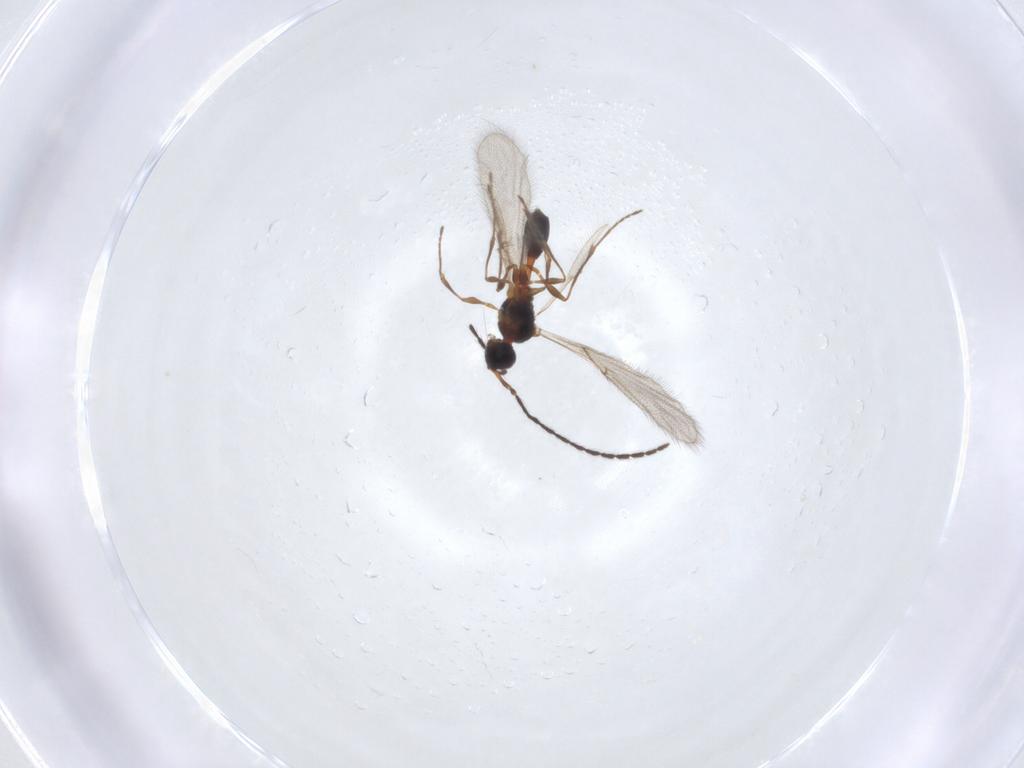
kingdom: Animalia
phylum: Arthropoda
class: Insecta
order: Hymenoptera
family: Diapriidae
